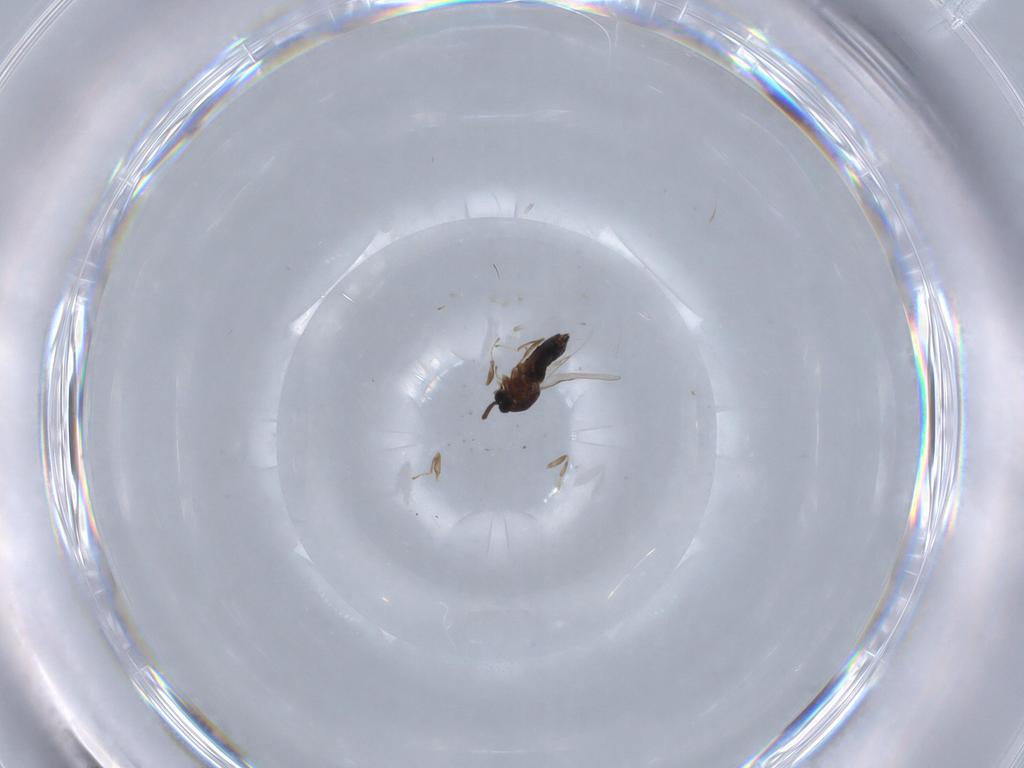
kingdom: Animalia
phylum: Arthropoda
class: Insecta
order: Diptera
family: Scatopsidae
